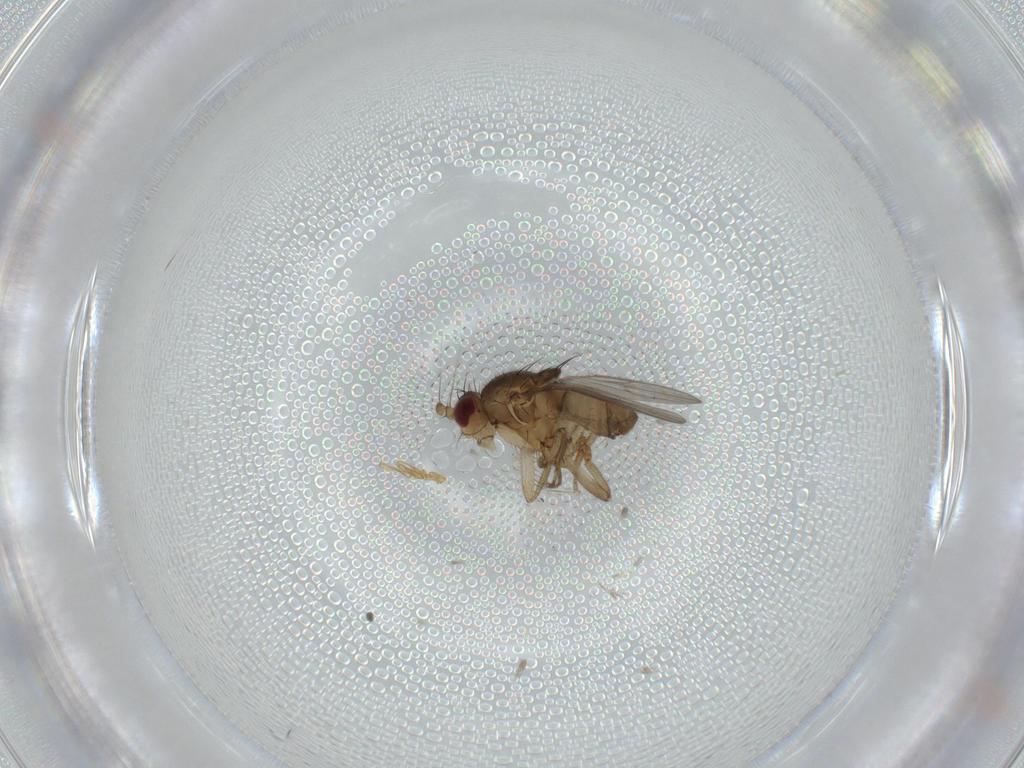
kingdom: Animalia
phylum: Arthropoda
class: Insecta
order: Diptera
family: Sphaeroceridae
